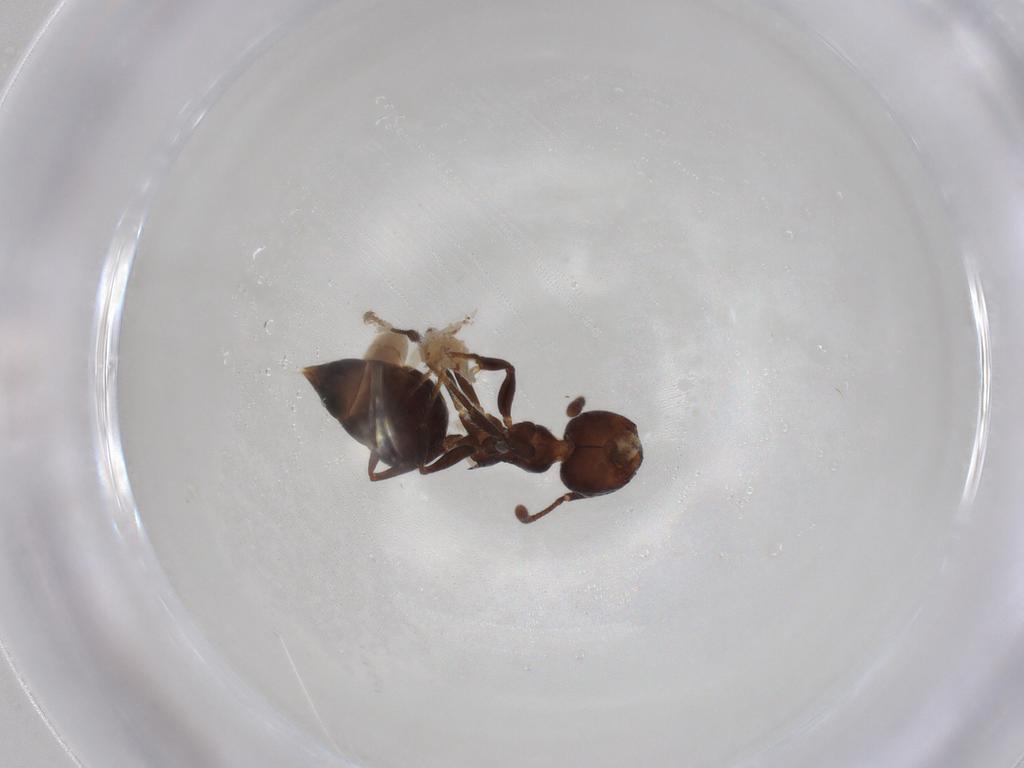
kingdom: Animalia
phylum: Arthropoda
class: Insecta
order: Hymenoptera
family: Formicidae
